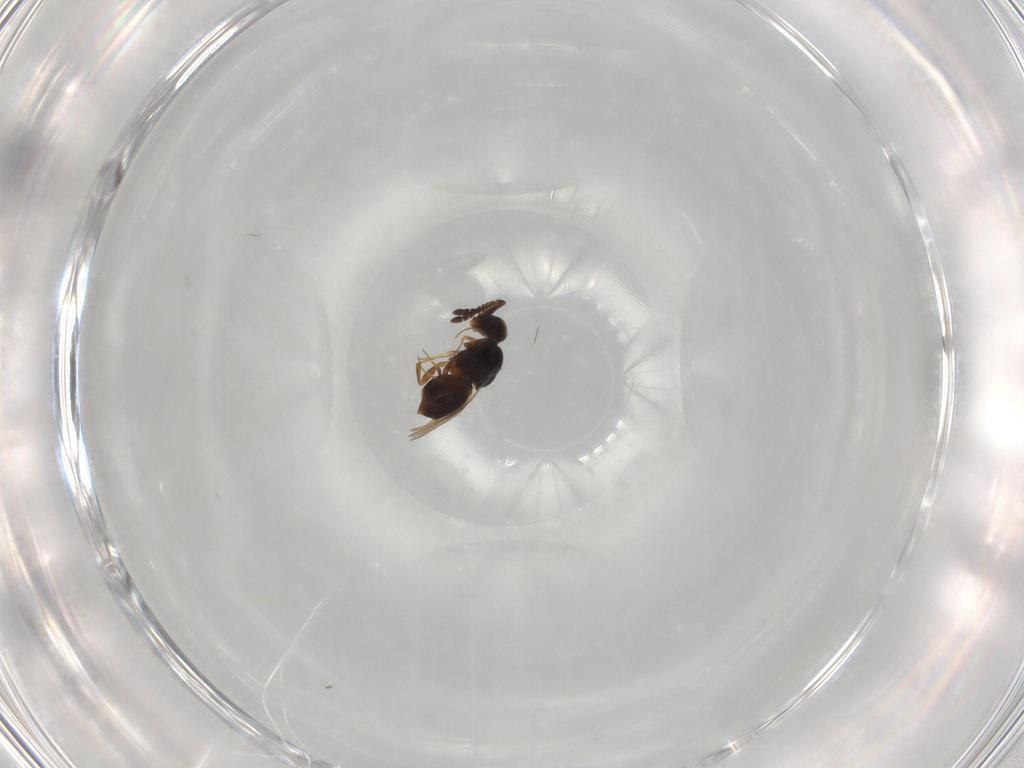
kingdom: Animalia
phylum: Arthropoda
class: Insecta
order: Hymenoptera
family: Ceraphronidae
